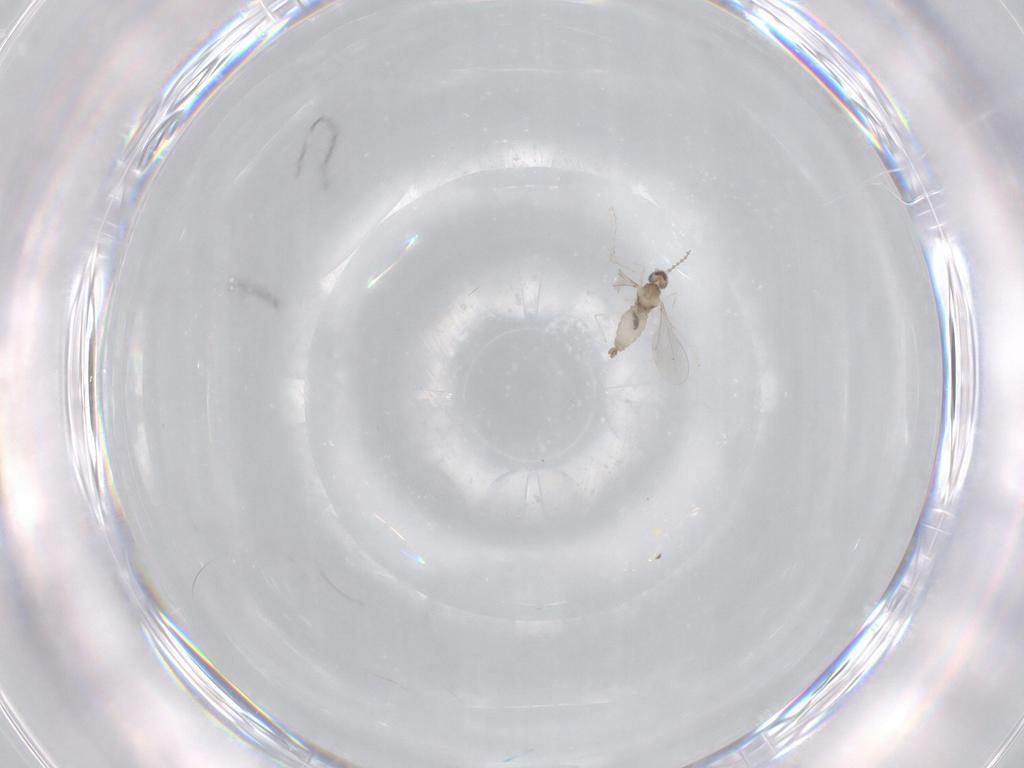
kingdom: Animalia
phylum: Arthropoda
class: Insecta
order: Diptera
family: Cecidomyiidae
